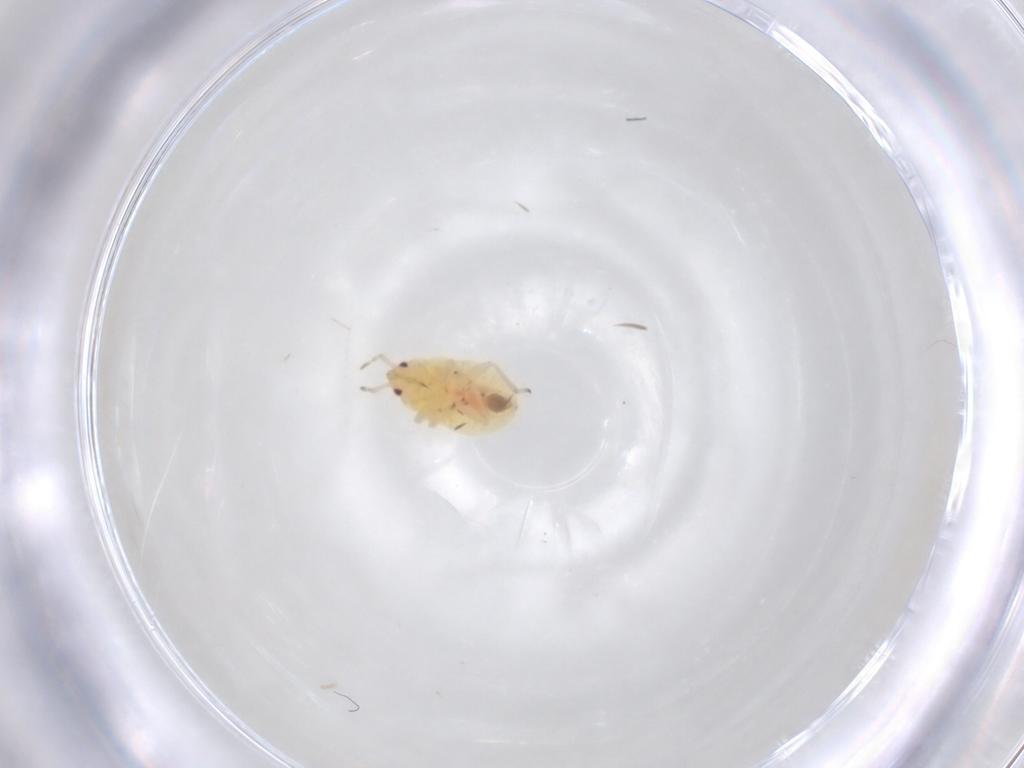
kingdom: Animalia
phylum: Arthropoda
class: Insecta
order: Hemiptera
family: Anthocoridae
